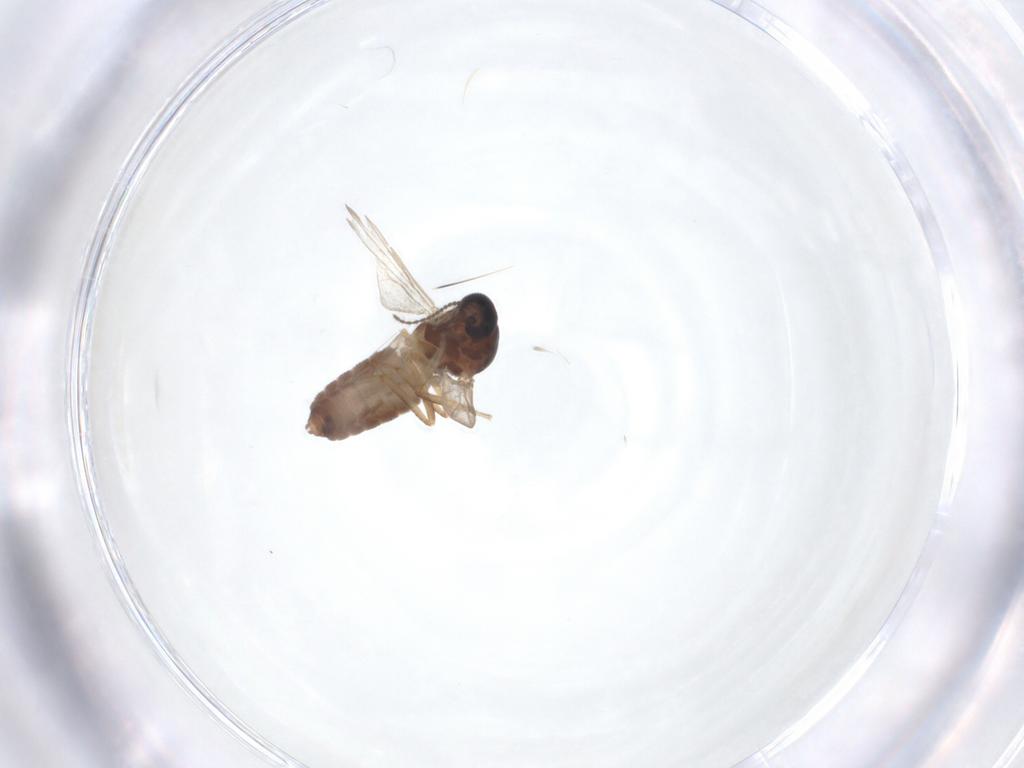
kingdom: Animalia
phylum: Arthropoda
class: Insecta
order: Diptera
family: Ceratopogonidae
